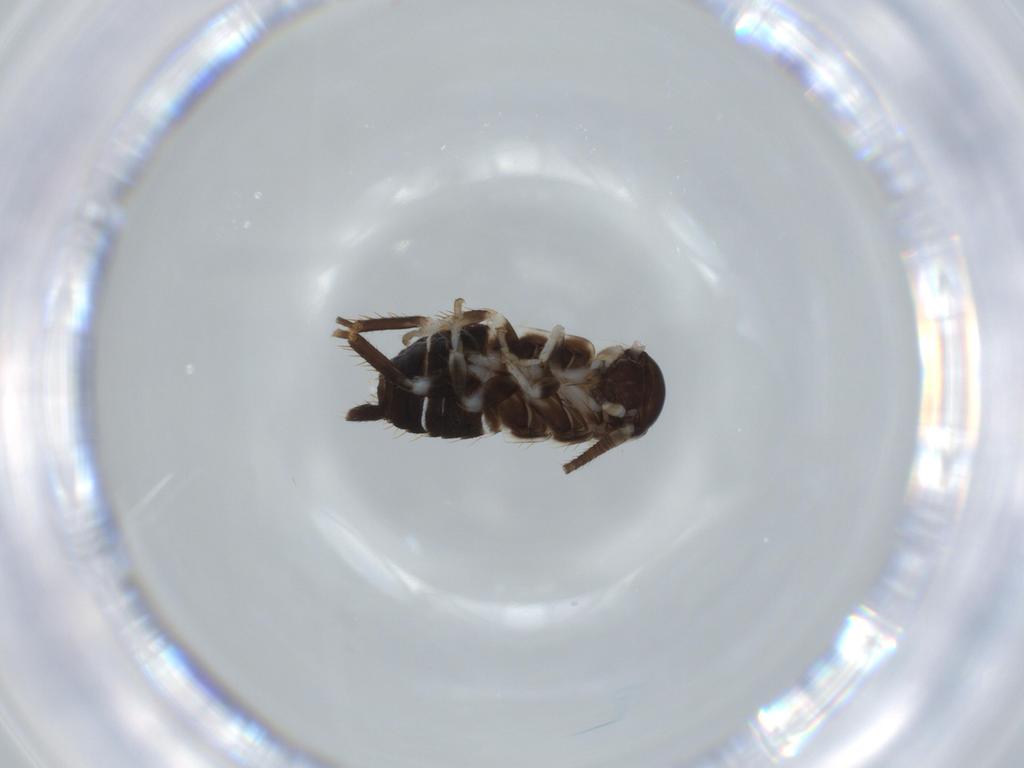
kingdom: Animalia
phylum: Arthropoda
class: Insecta
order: Blattodea
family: Ectobiidae
